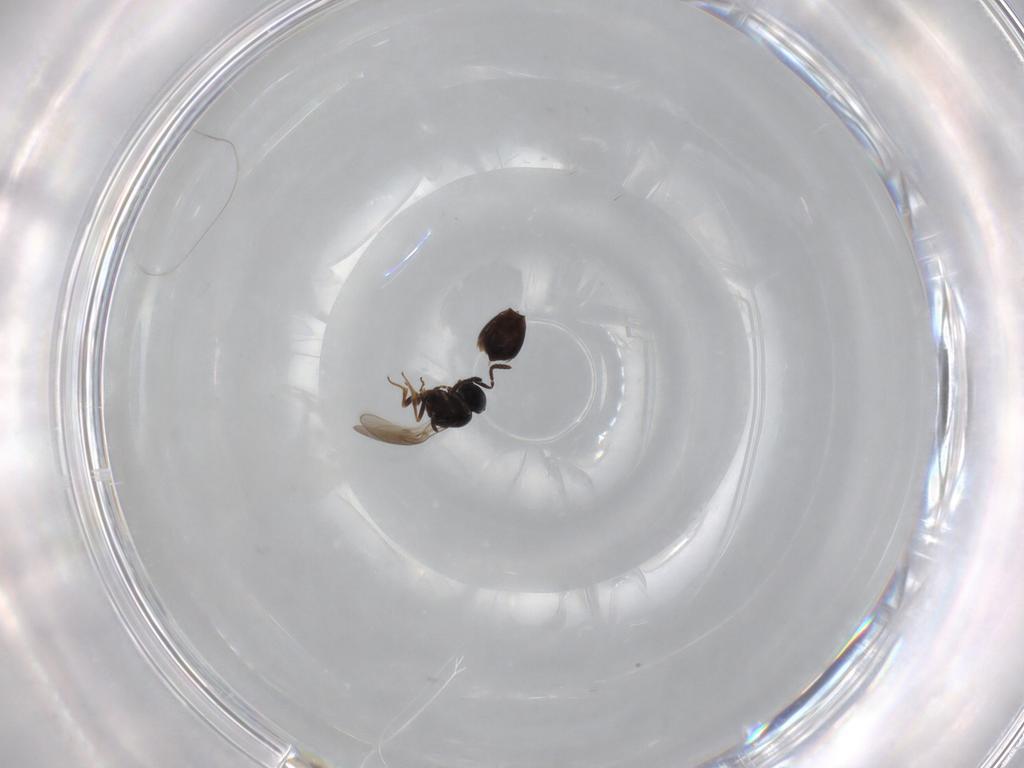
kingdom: Animalia
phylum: Arthropoda
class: Insecta
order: Hymenoptera
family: Scelionidae
